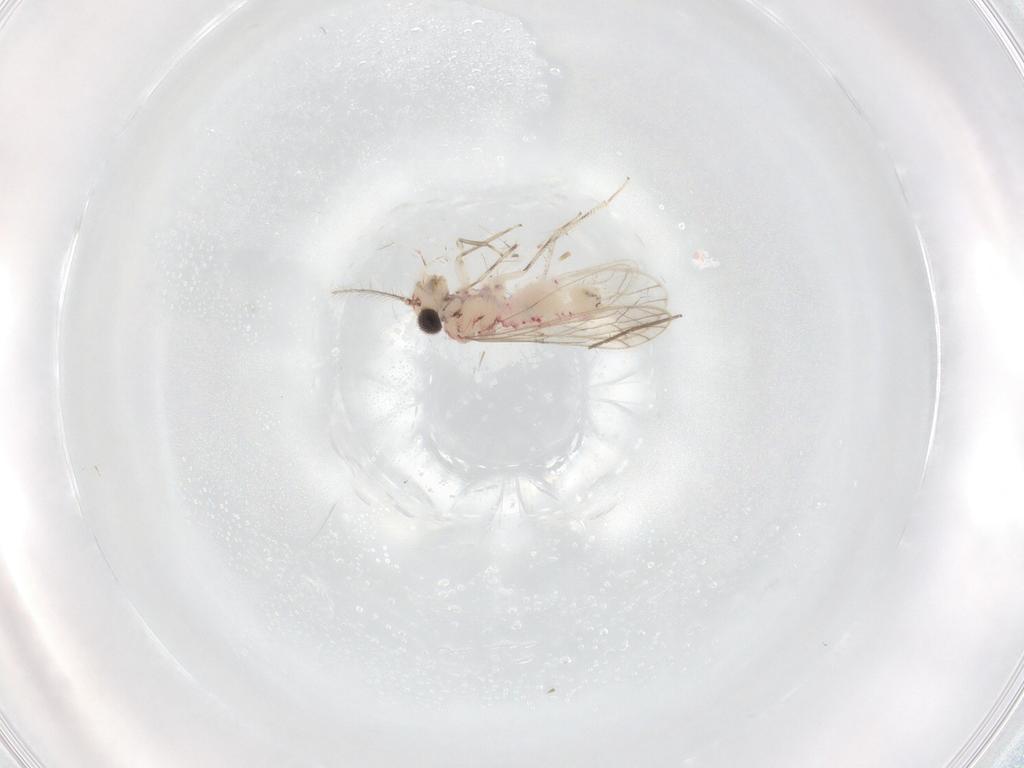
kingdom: Animalia
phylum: Arthropoda
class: Insecta
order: Psocodea
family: Caeciliusidae
